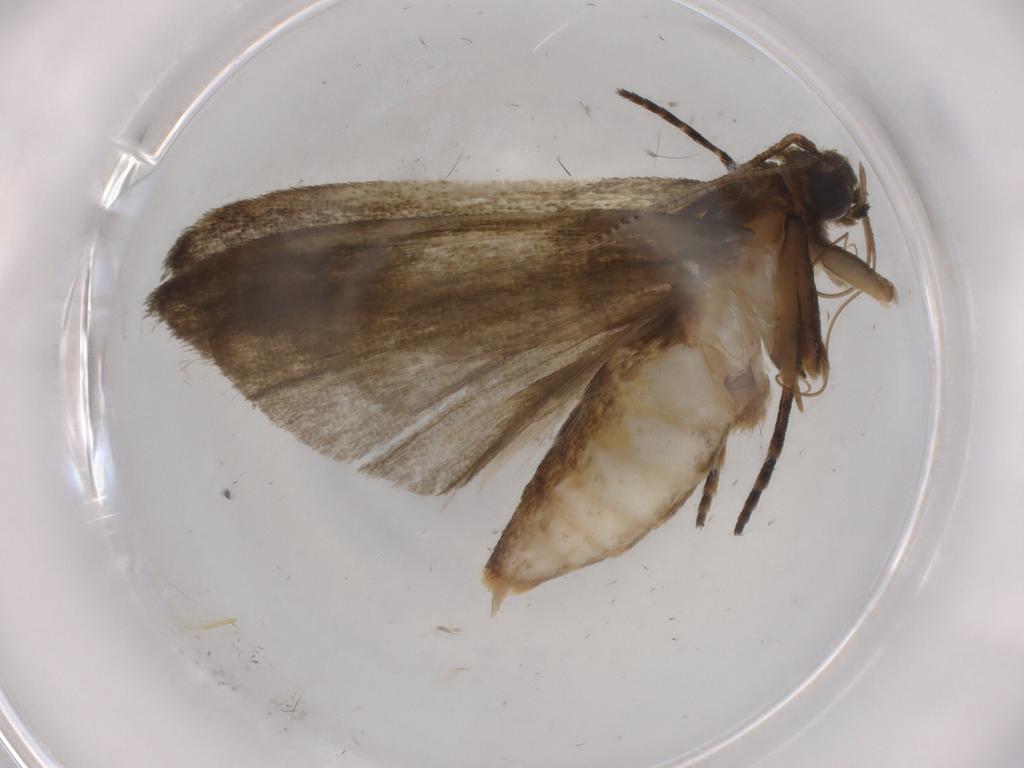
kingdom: Animalia
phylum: Arthropoda
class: Insecta
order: Lepidoptera
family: Noctuidae
